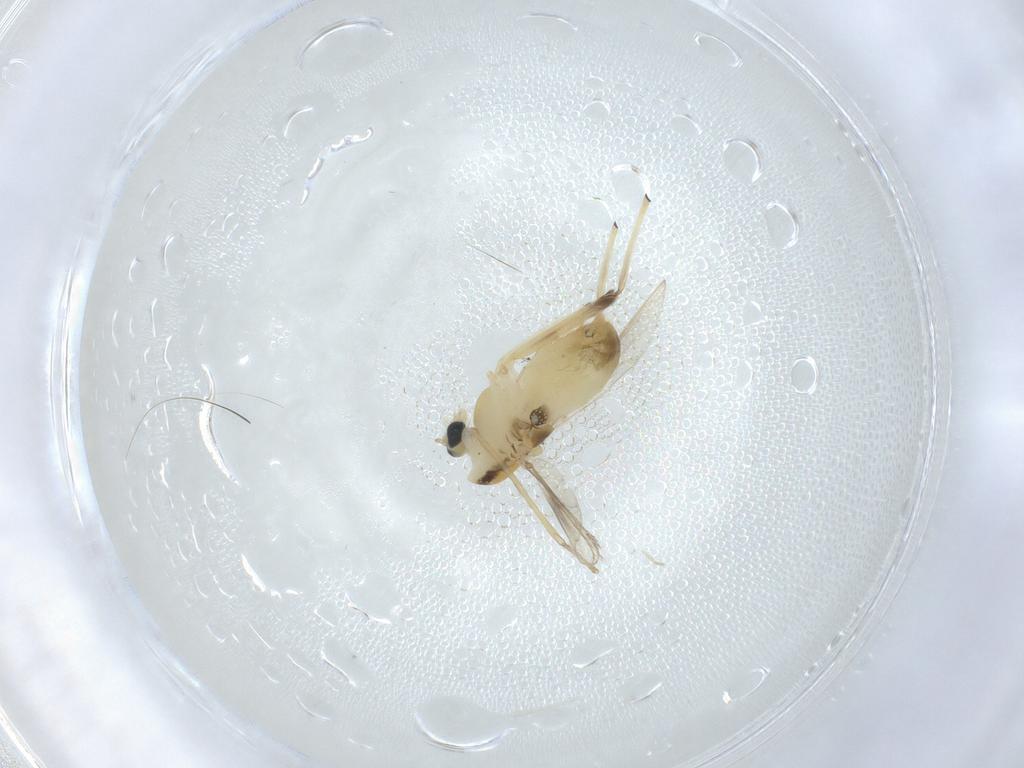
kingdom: Animalia
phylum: Arthropoda
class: Insecta
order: Diptera
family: Chironomidae
